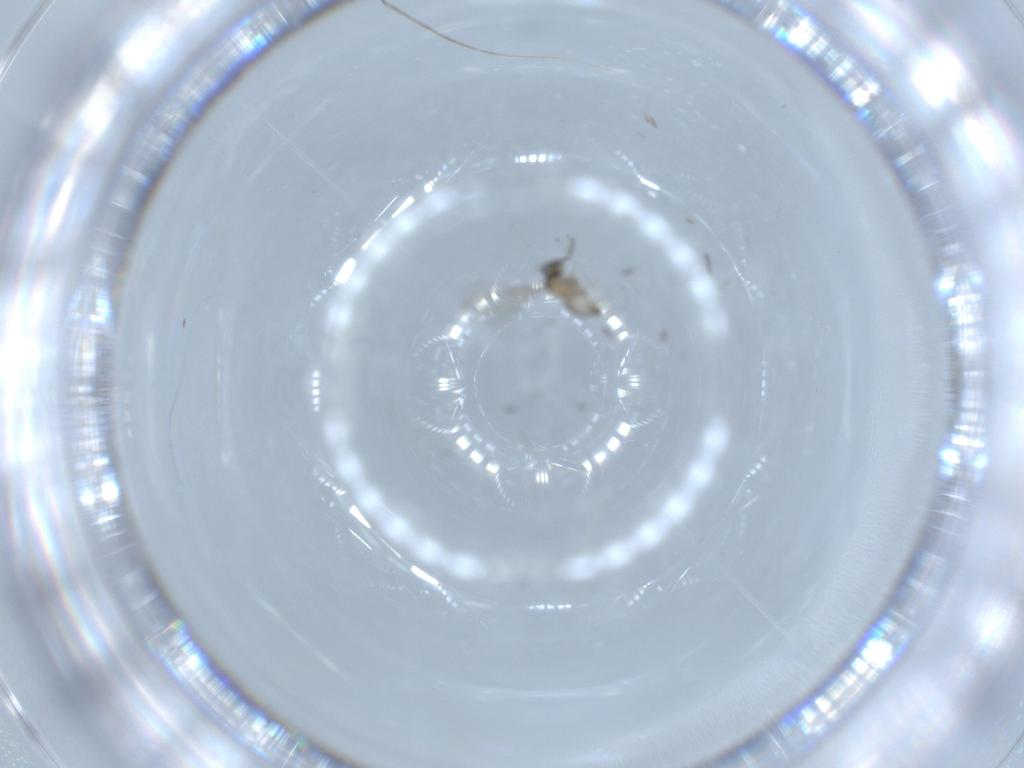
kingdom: Animalia
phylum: Arthropoda
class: Insecta
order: Diptera
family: Cecidomyiidae
